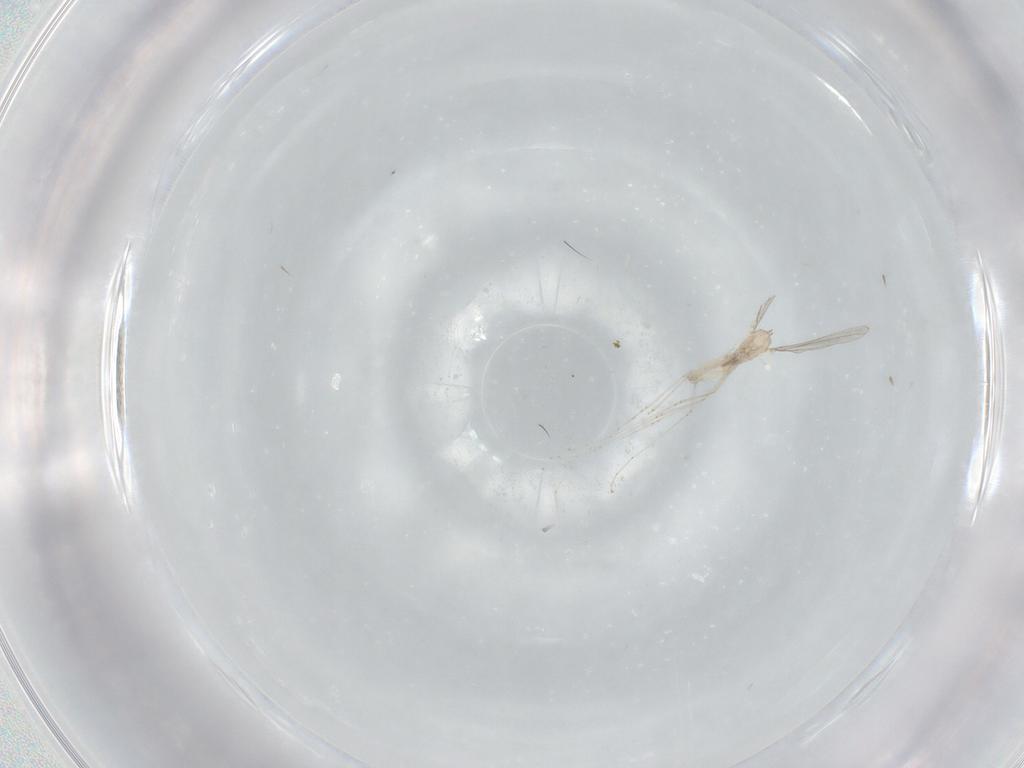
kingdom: Animalia
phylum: Arthropoda
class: Insecta
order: Diptera
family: Cecidomyiidae
